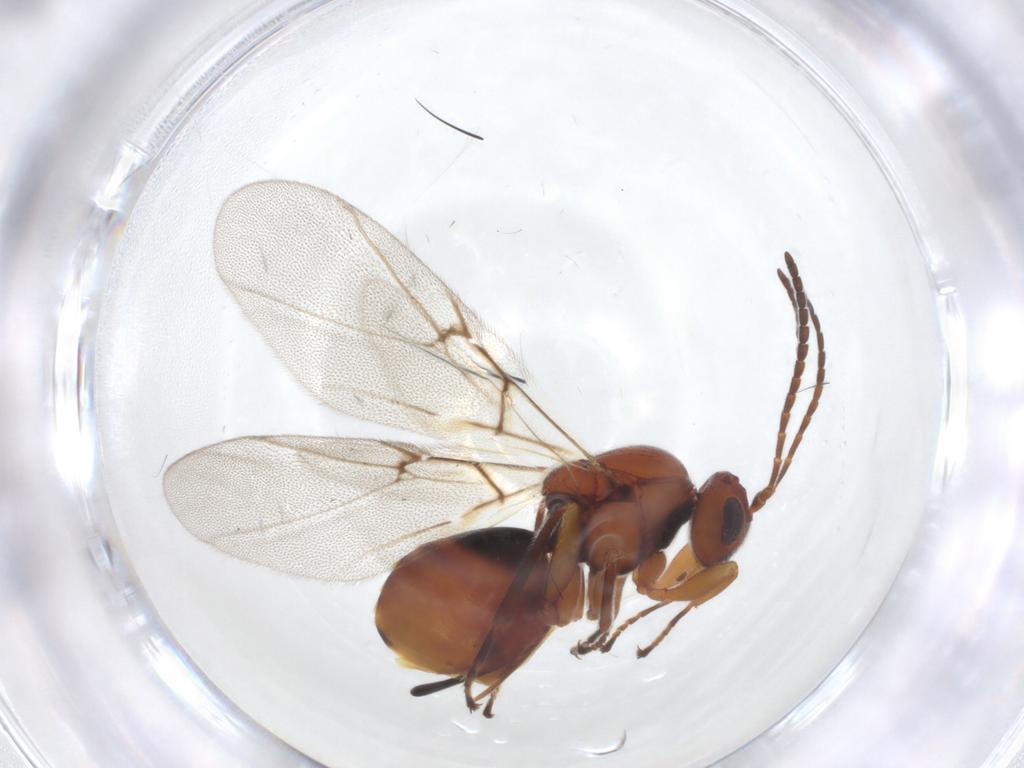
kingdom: Animalia
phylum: Arthropoda
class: Insecta
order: Hymenoptera
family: Cynipidae
